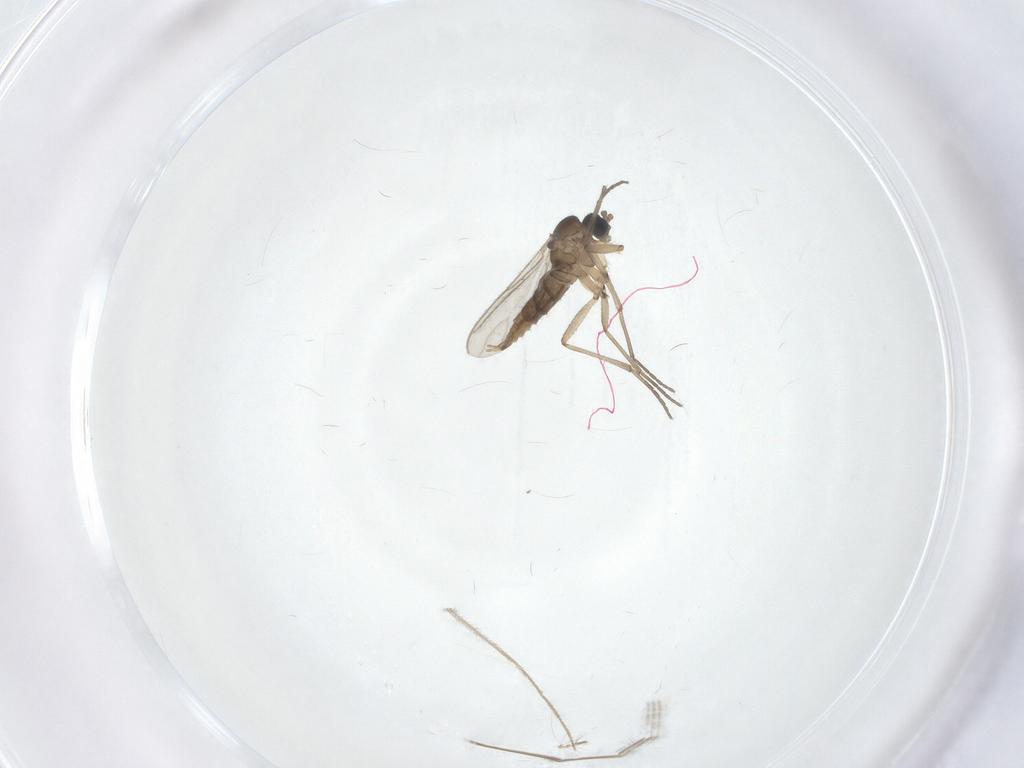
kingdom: Animalia
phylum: Arthropoda
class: Insecta
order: Diptera
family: Sciaridae
